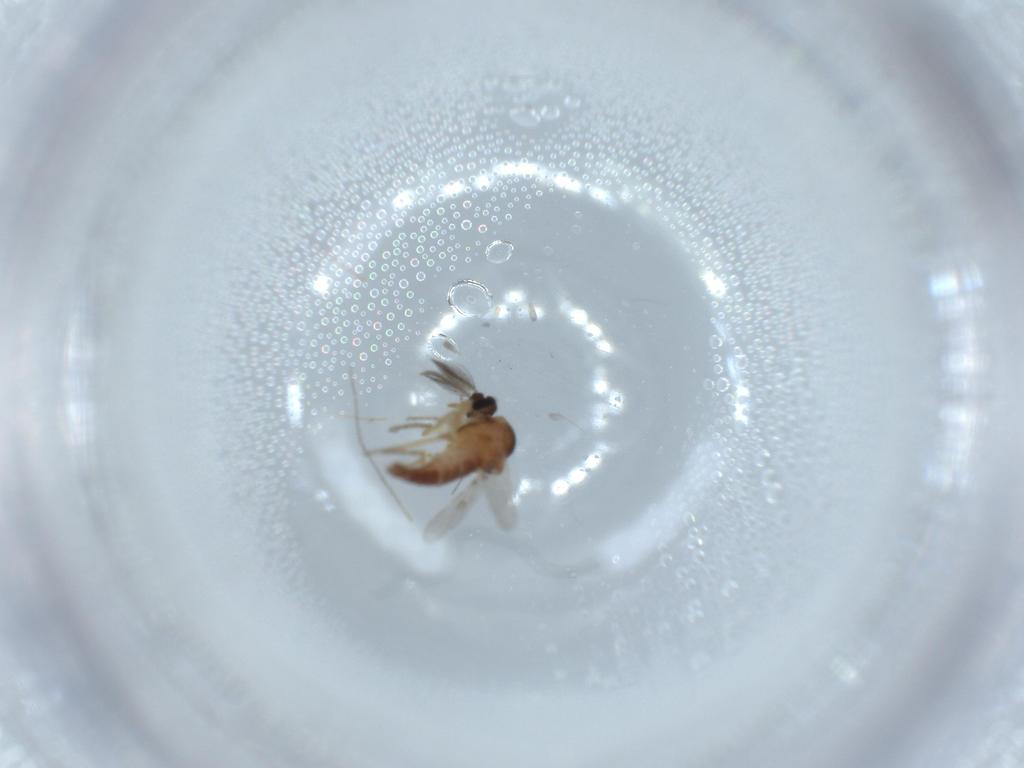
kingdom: Animalia
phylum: Arthropoda
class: Insecta
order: Diptera
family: Ceratopogonidae
